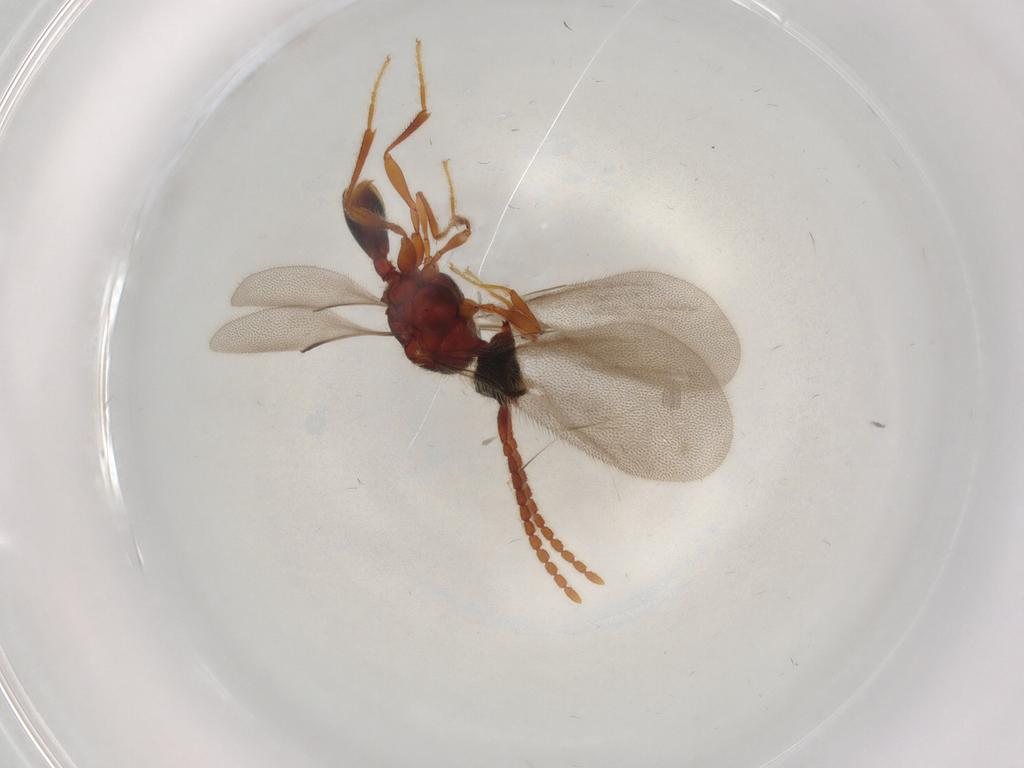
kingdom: Animalia
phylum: Arthropoda
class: Insecta
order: Hymenoptera
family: Diapriidae
